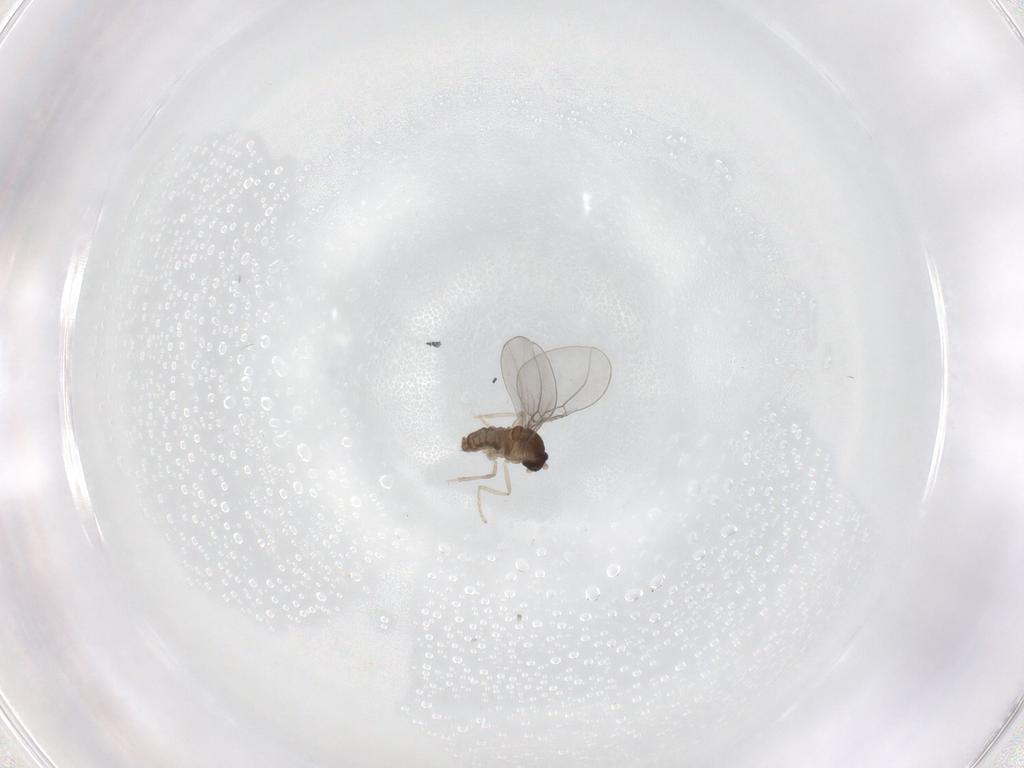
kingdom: Animalia
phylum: Arthropoda
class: Insecta
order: Diptera
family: Cecidomyiidae
